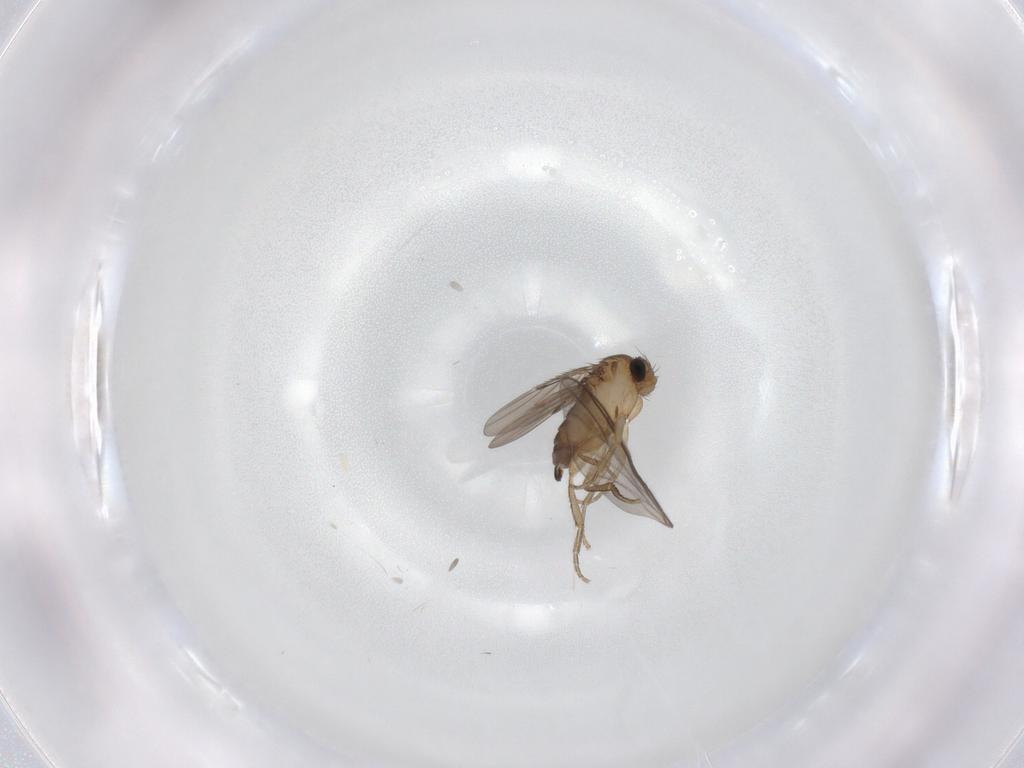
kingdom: Animalia
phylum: Arthropoda
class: Insecta
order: Diptera
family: Phoridae
